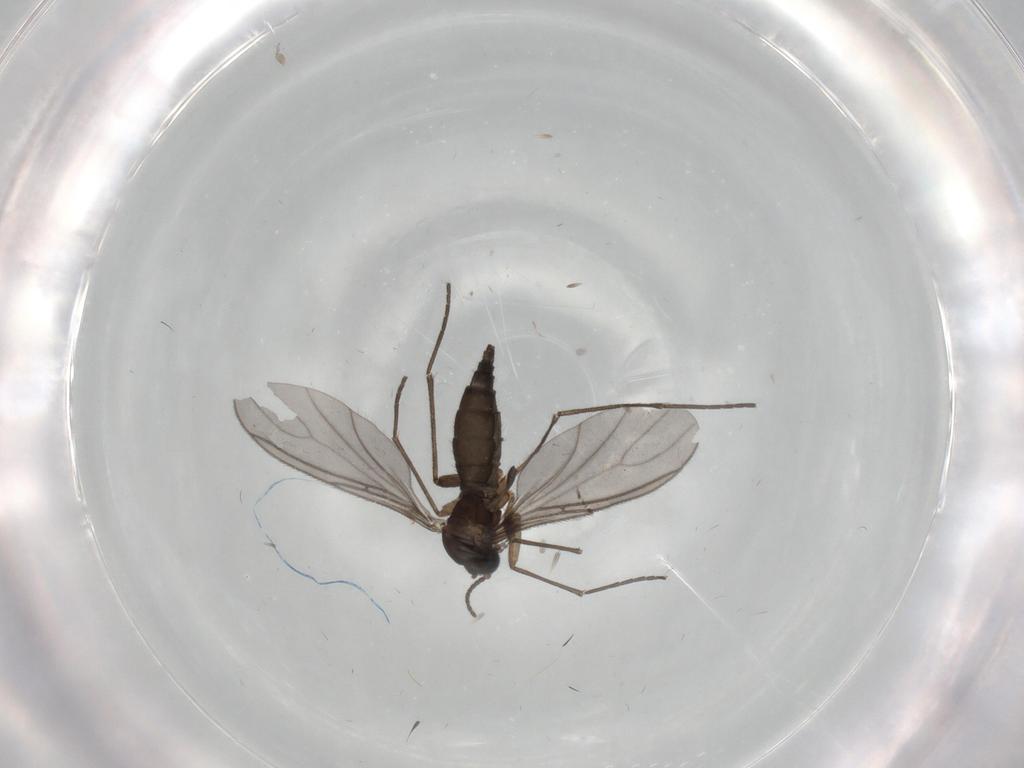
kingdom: Animalia
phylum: Arthropoda
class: Insecta
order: Diptera
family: Sciaridae
